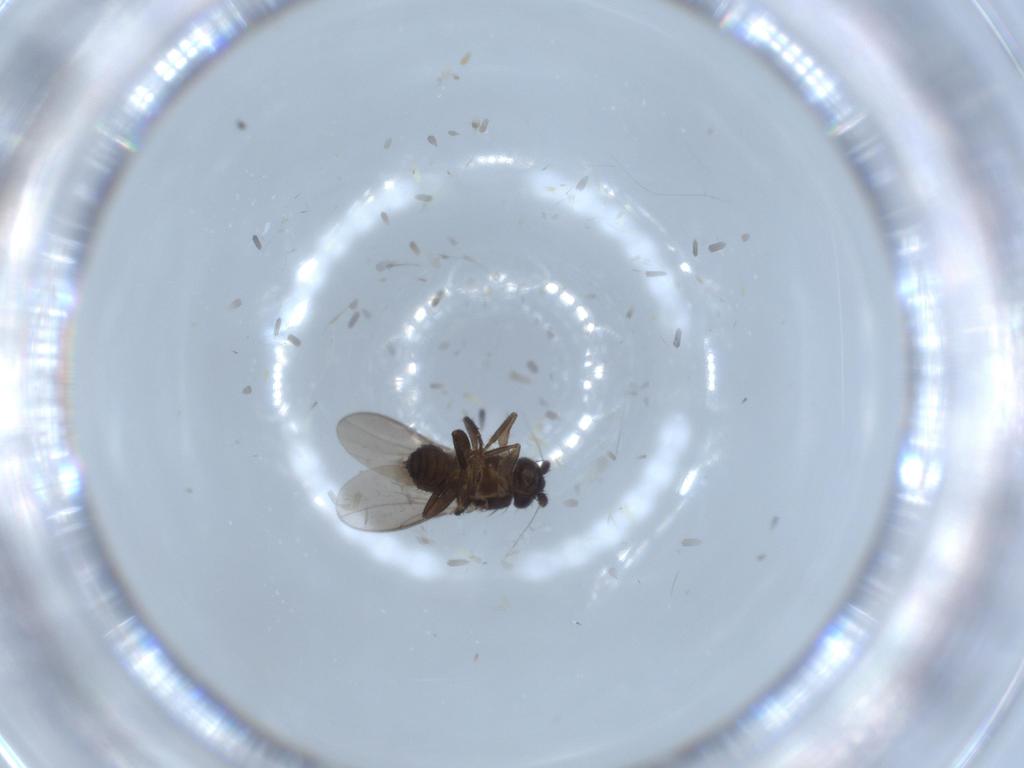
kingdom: Animalia
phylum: Arthropoda
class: Insecta
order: Diptera
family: Sphaeroceridae
